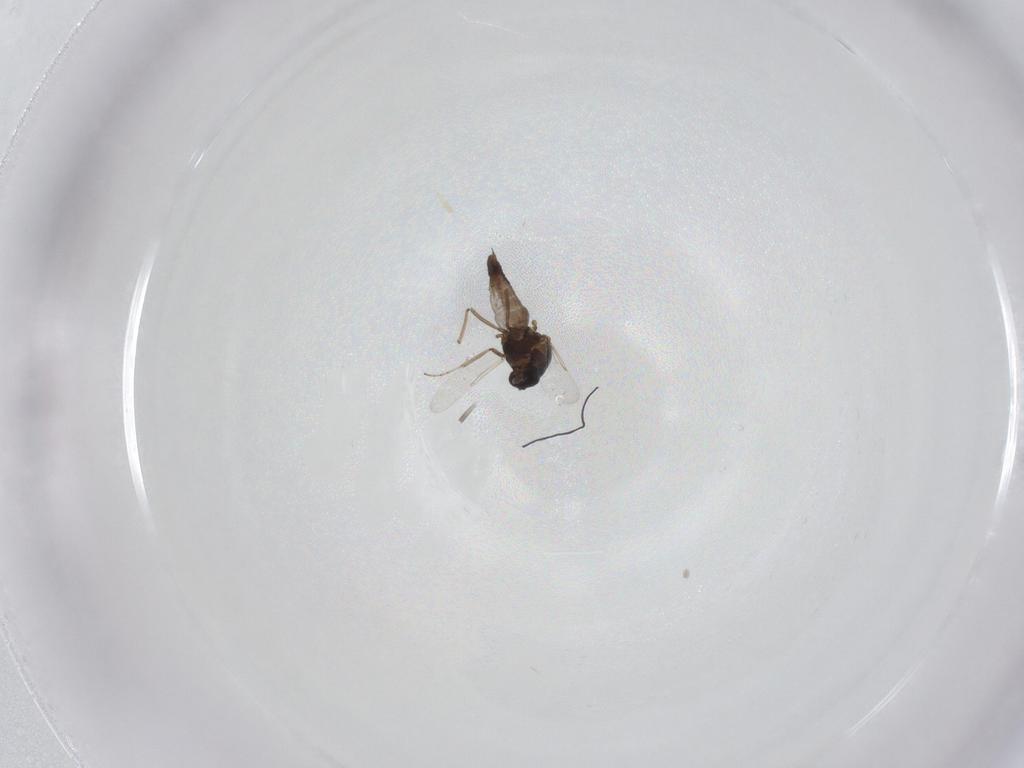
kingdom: Animalia
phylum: Arthropoda
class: Insecta
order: Diptera
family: Ceratopogonidae
